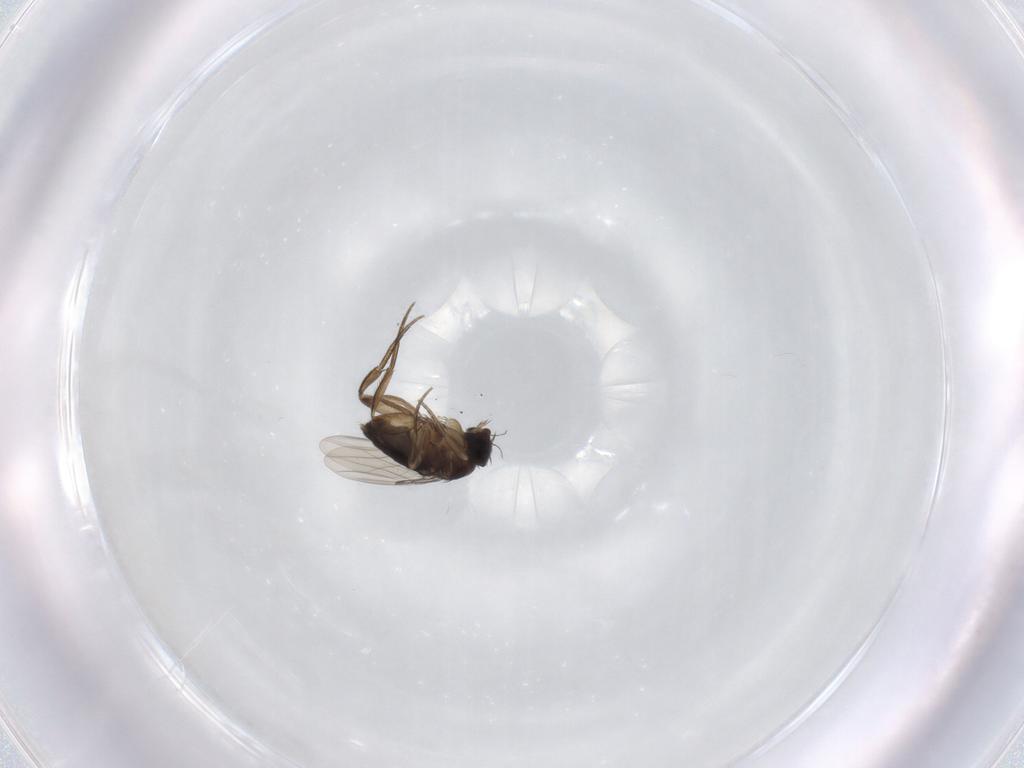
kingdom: Animalia
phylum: Arthropoda
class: Insecta
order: Diptera
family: Phoridae
